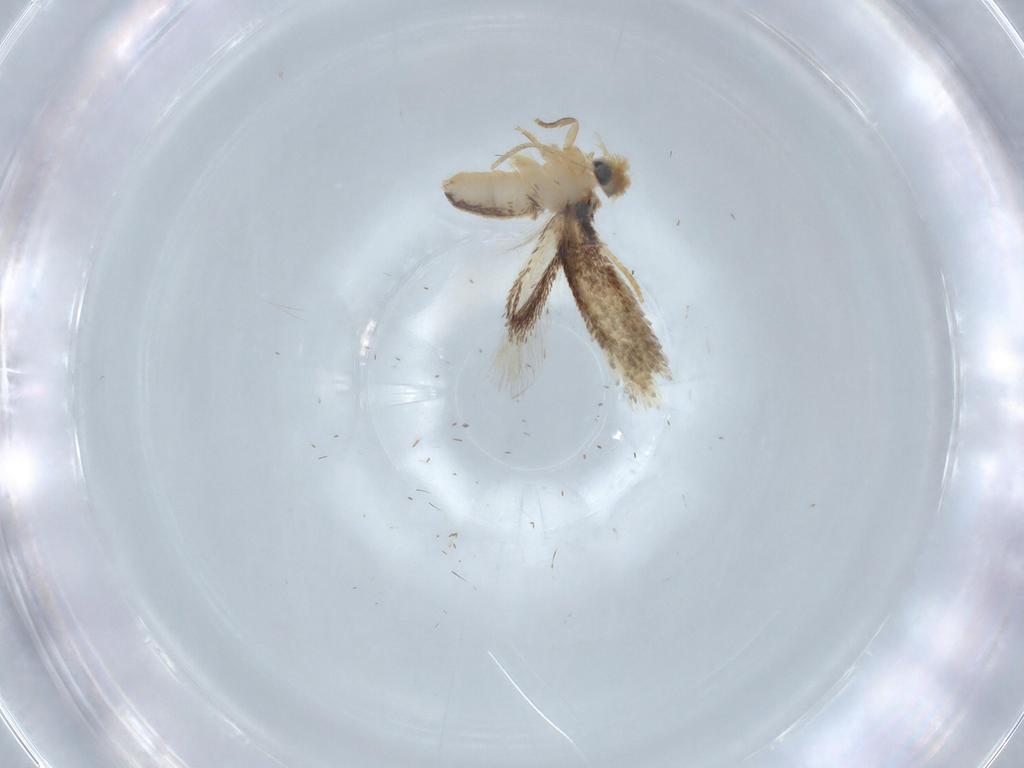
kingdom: Animalia
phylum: Arthropoda
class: Insecta
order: Lepidoptera
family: Nepticulidae
